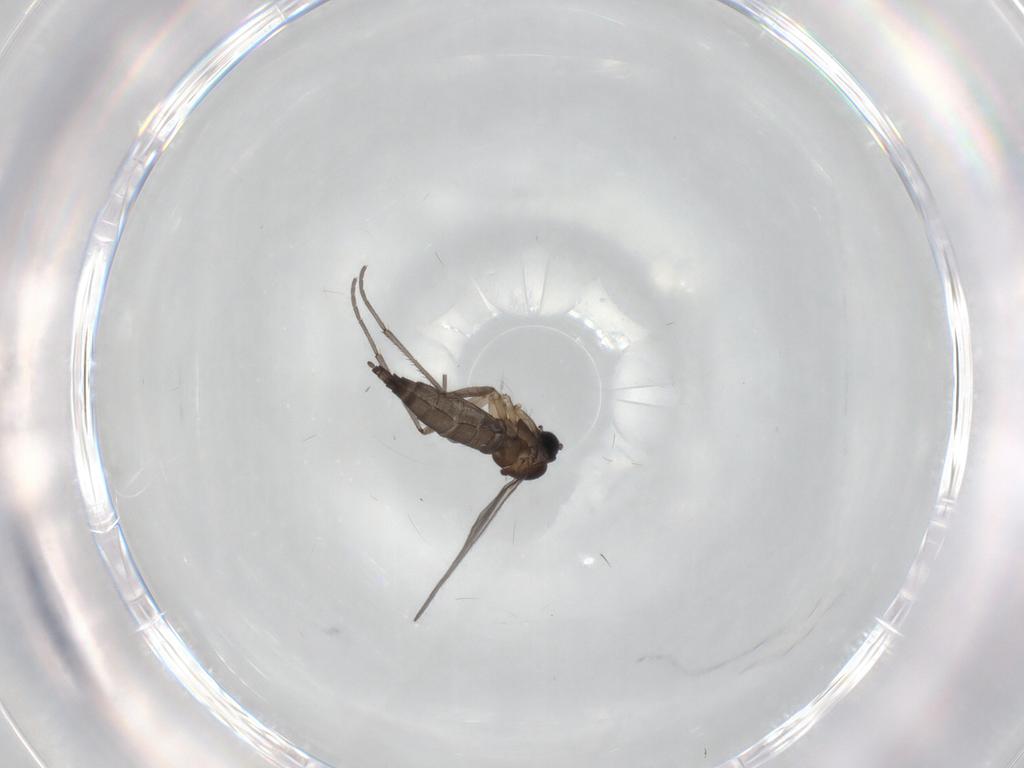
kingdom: Animalia
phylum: Arthropoda
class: Insecta
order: Diptera
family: Sciaridae
